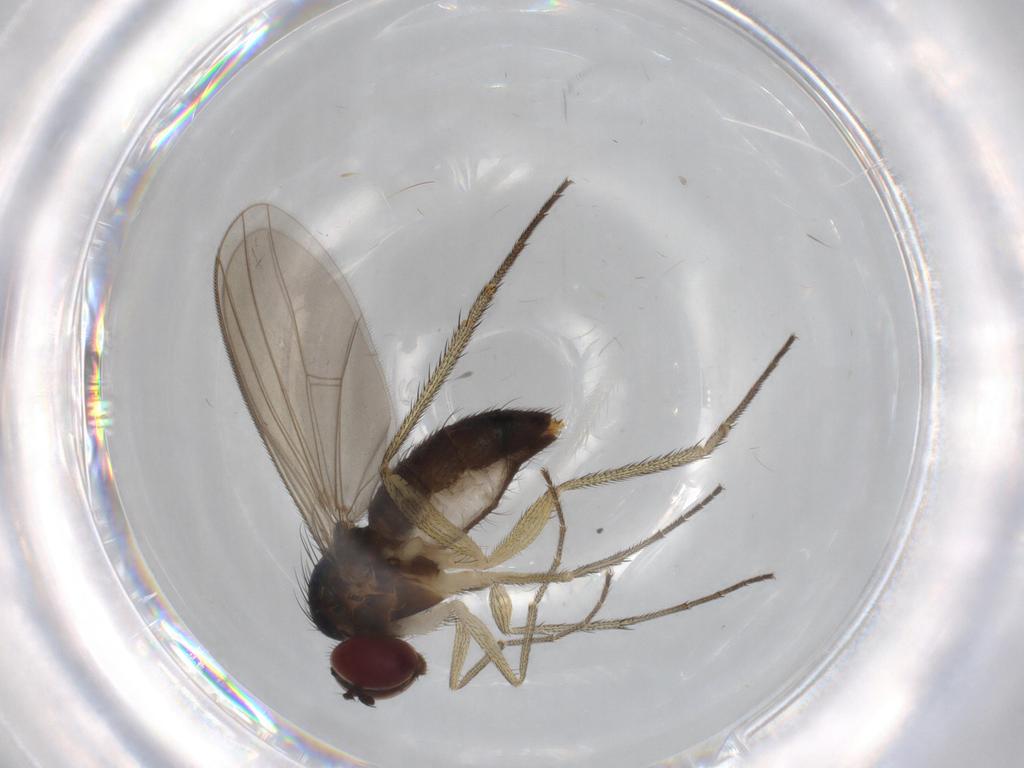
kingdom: Animalia
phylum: Arthropoda
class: Insecta
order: Diptera
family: Dolichopodidae
